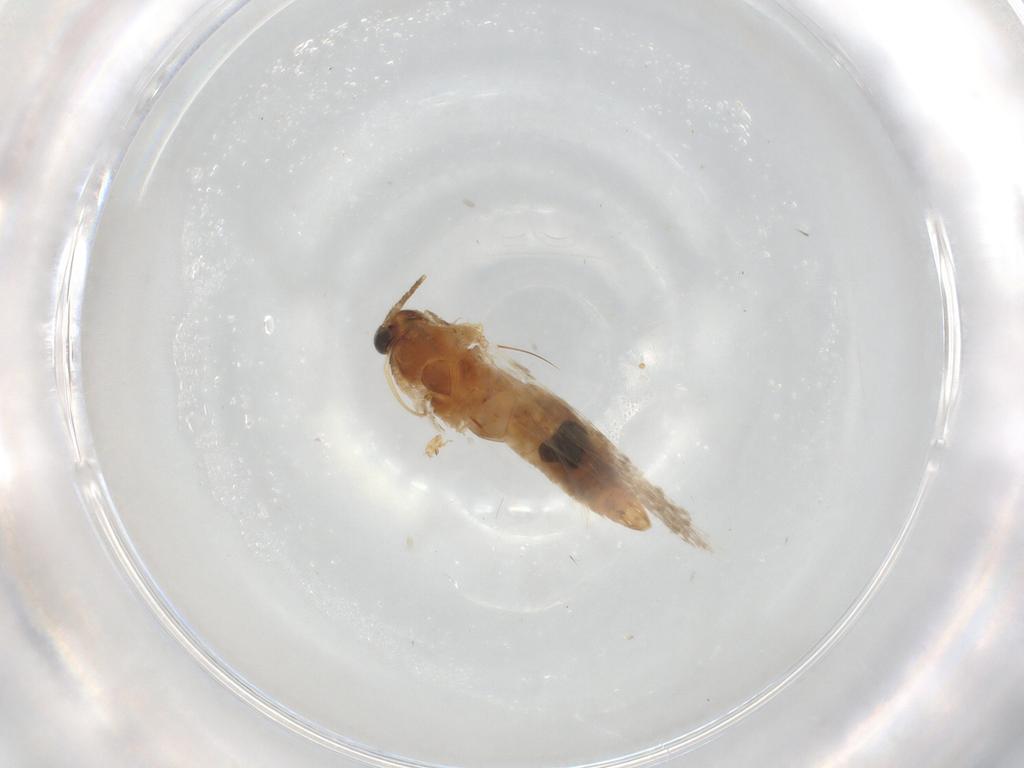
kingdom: Animalia
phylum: Arthropoda
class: Insecta
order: Lepidoptera
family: Gelechiidae
